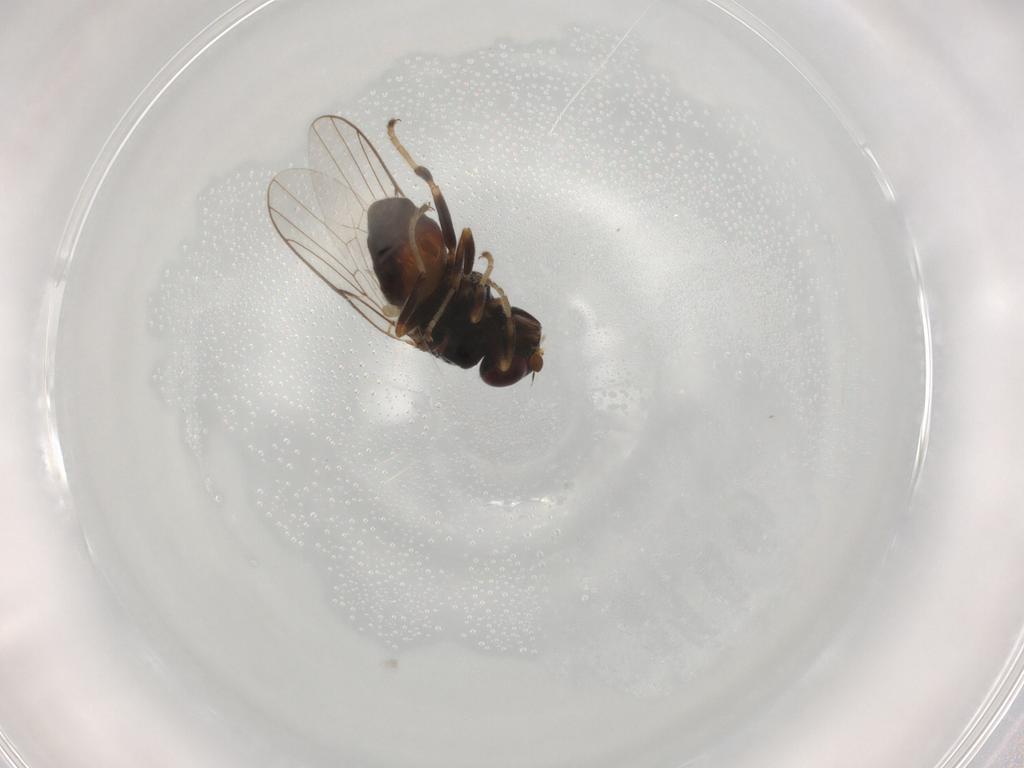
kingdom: Animalia
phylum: Arthropoda
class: Insecta
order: Diptera
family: Chloropidae
